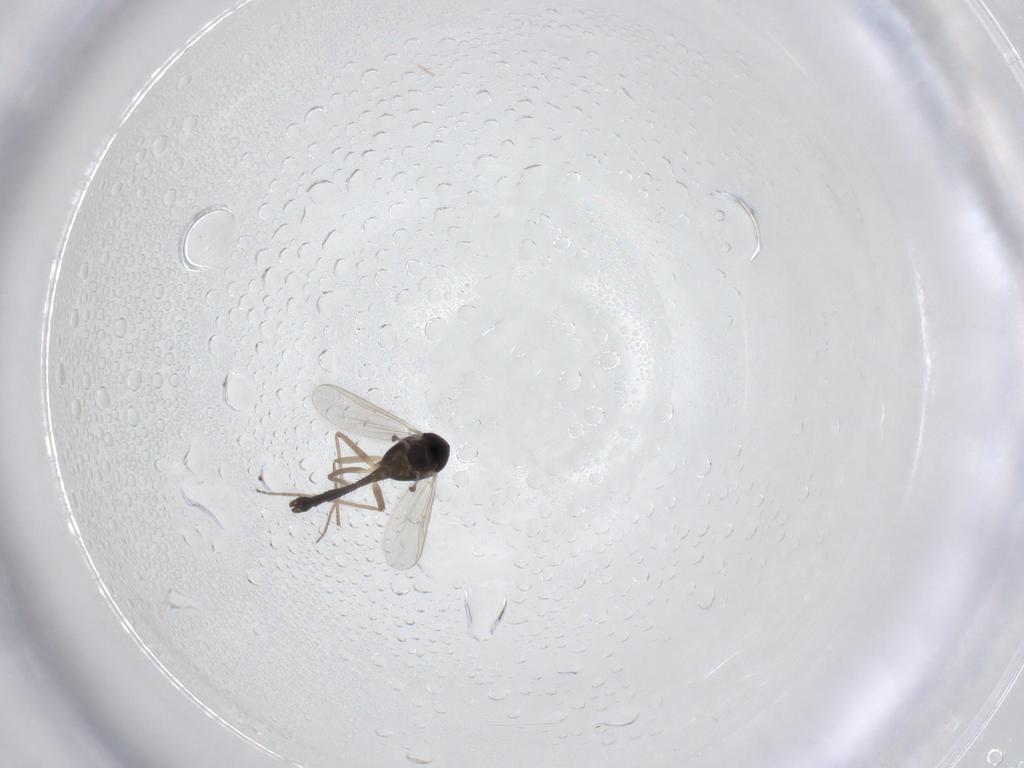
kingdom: Animalia
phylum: Arthropoda
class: Insecta
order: Diptera
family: Chironomidae
